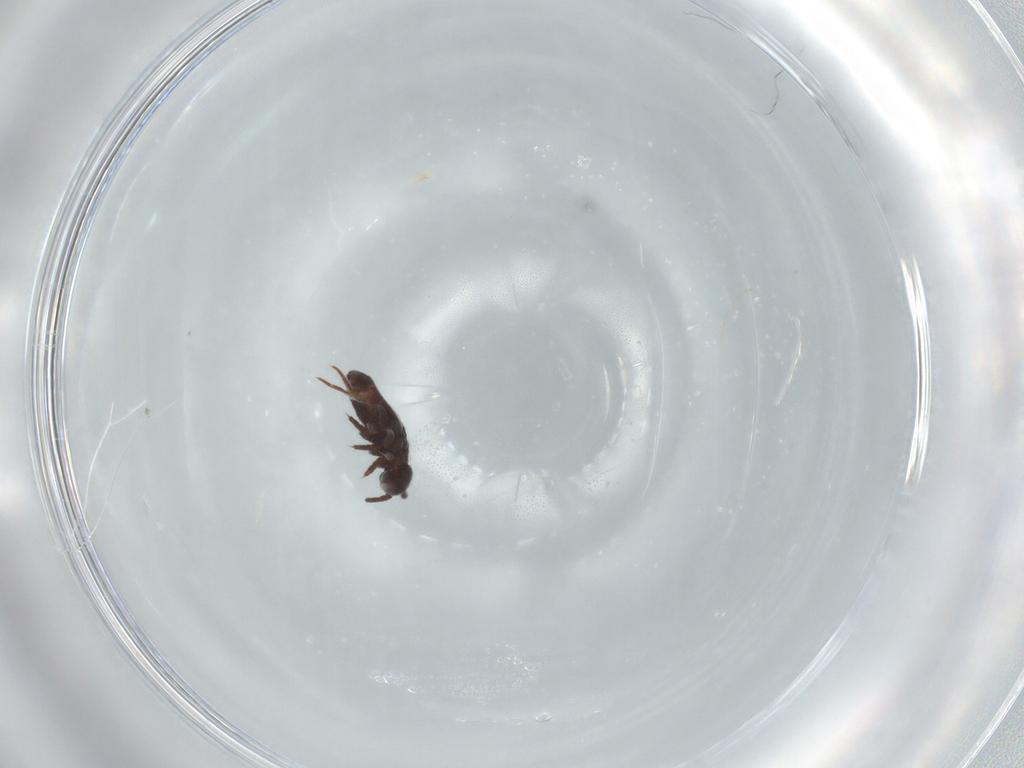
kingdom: Animalia
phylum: Arthropoda
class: Collembola
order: Poduromorpha
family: Poduridae
